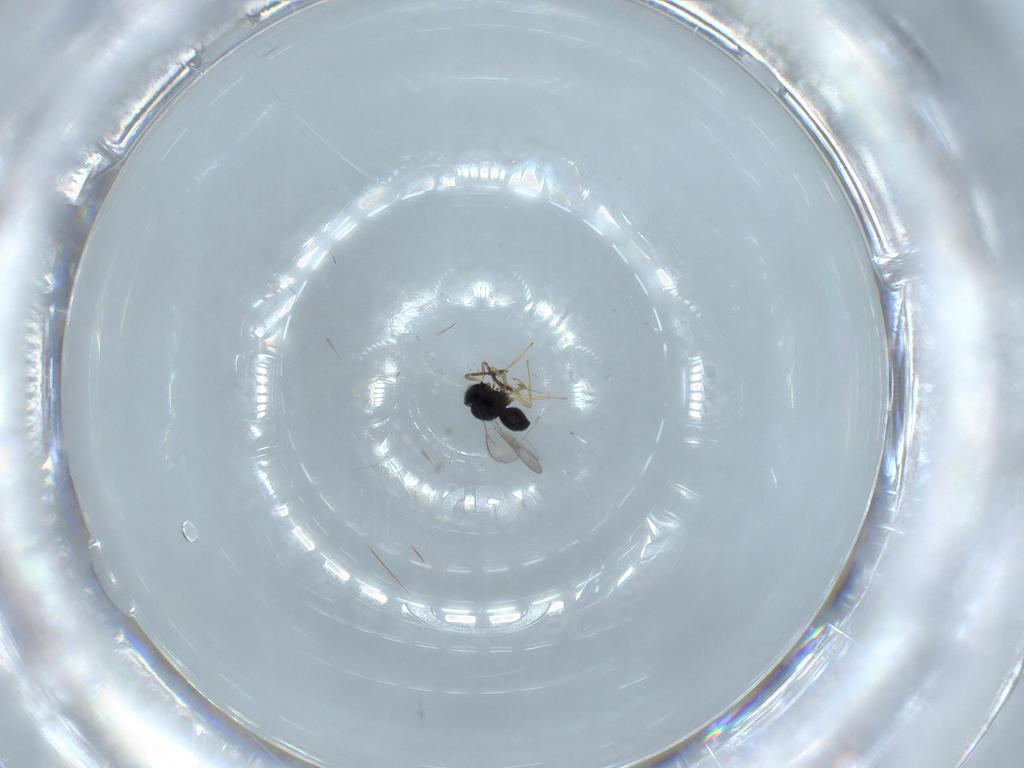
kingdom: Animalia
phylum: Arthropoda
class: Insecta
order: Hymenoptera
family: Scelionidae
